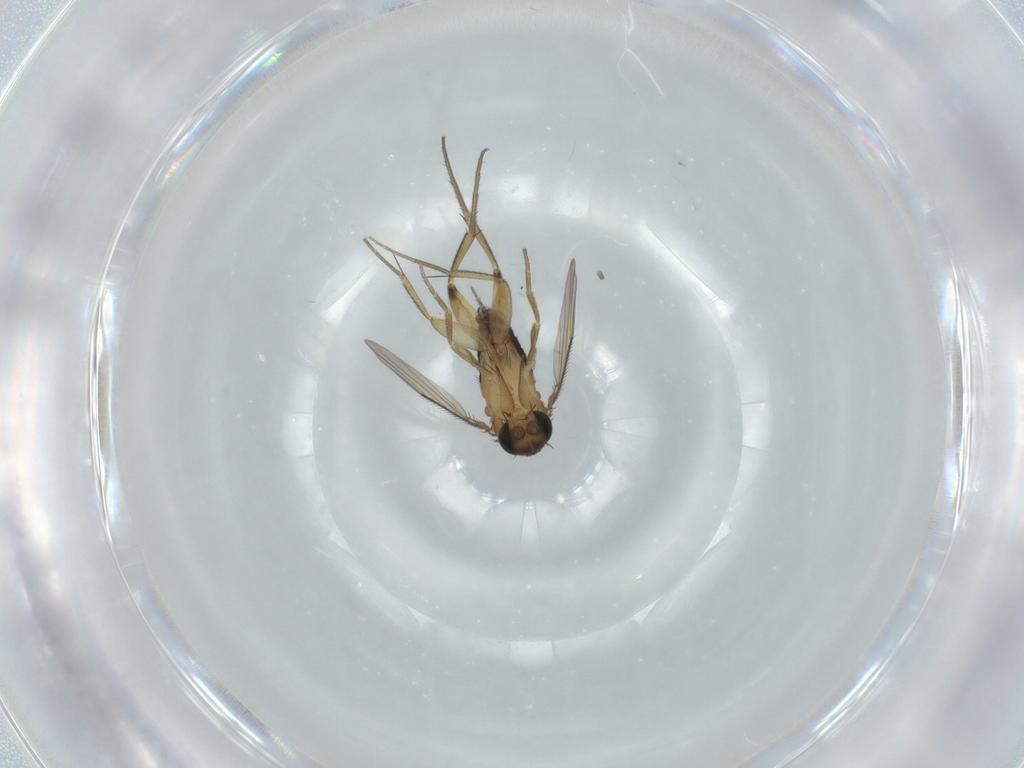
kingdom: Animalia
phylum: Arthropoda
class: Insecta
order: Diptera
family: Phoridae
